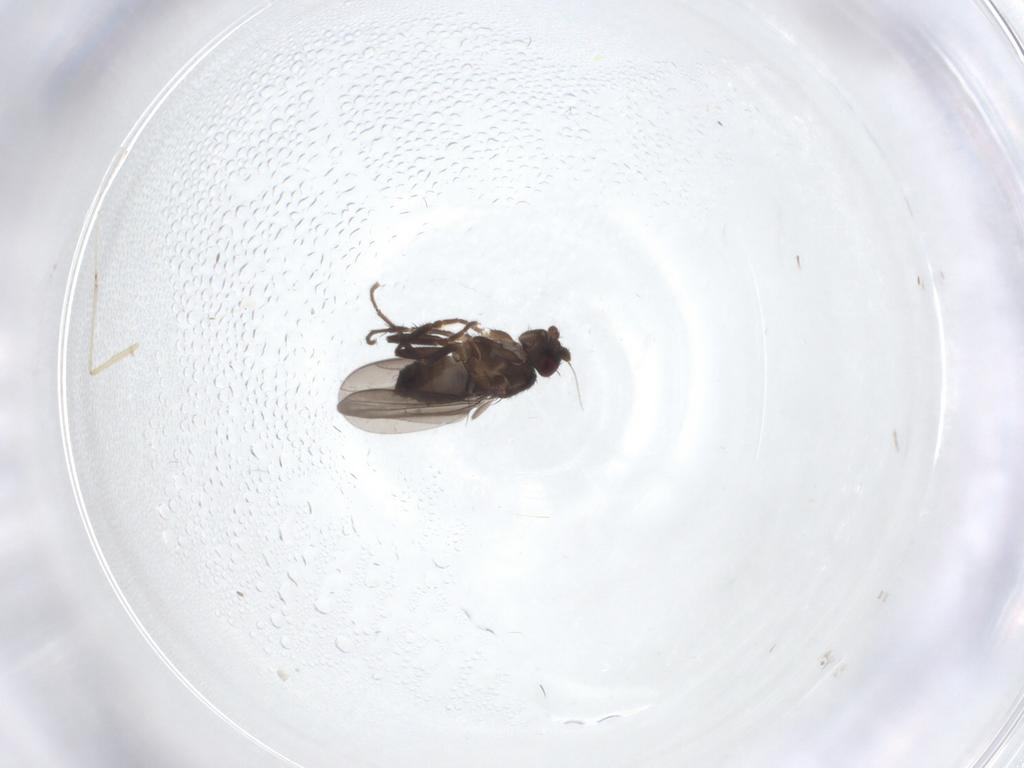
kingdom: Animalia
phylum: Arthropoda
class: Insecta
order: Diptera
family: Sphaeroceridae
